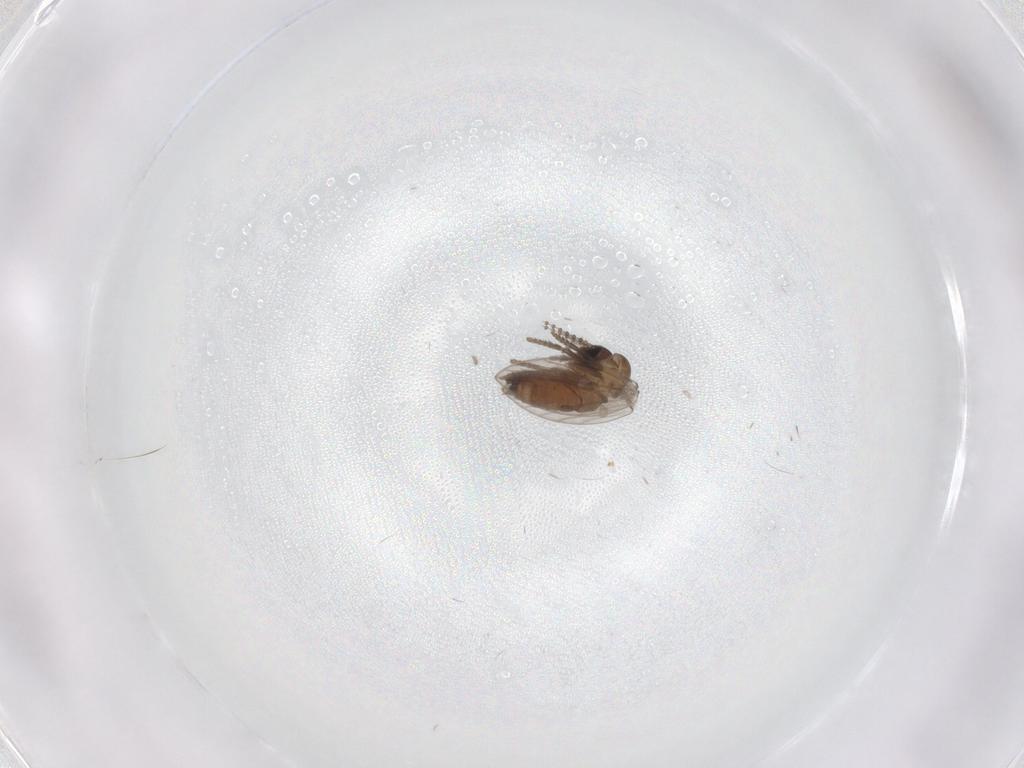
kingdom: Animalia
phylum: Arthropoda
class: Insecta
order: Diptera
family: Psychodidae
